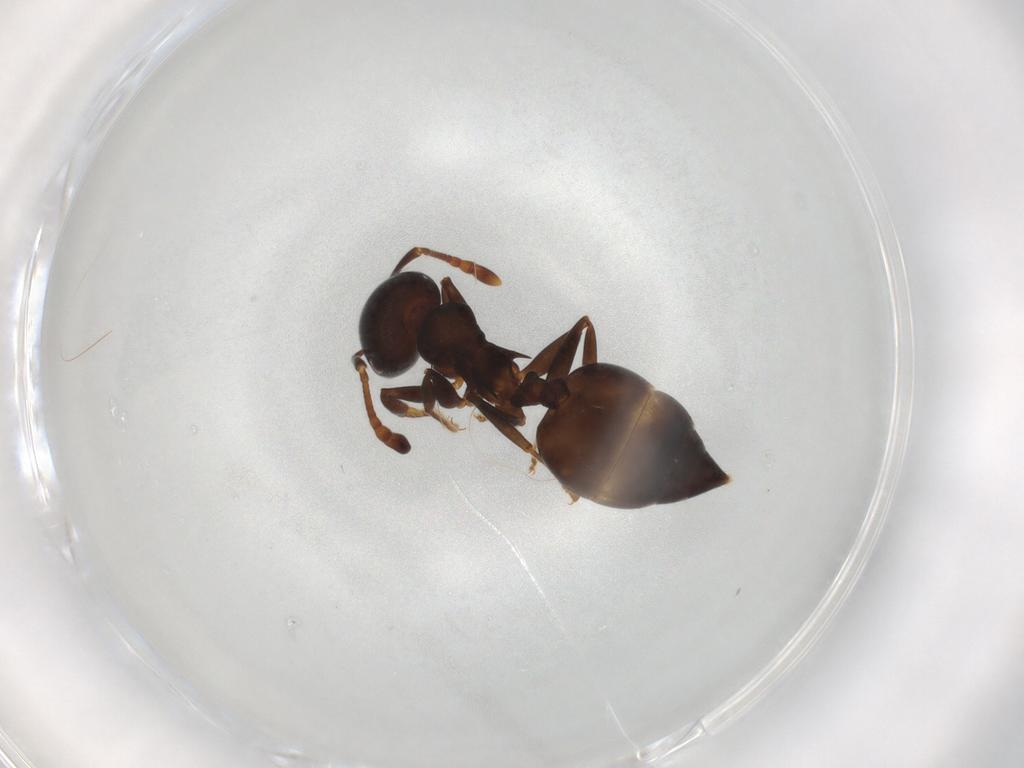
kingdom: Animalia
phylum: Arthropoda
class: Insecta
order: Hymenoptera
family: Formicidae
